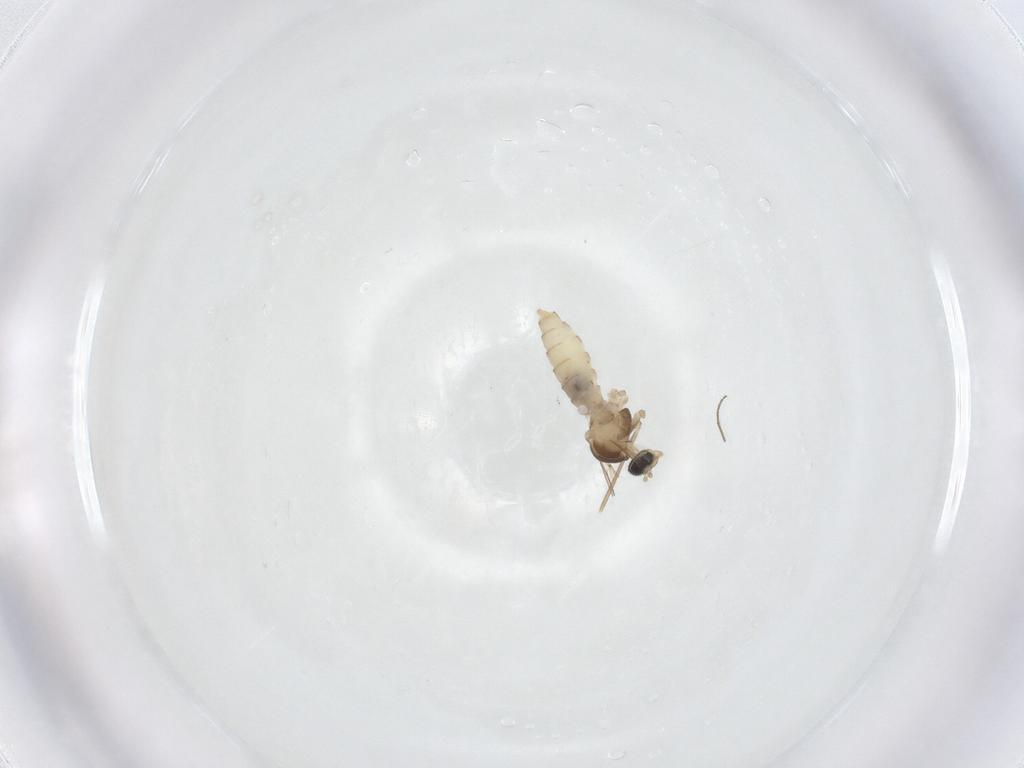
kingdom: Animalia
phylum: Arthropoda
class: Insecta
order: Diptera
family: Cecidomyiidae
